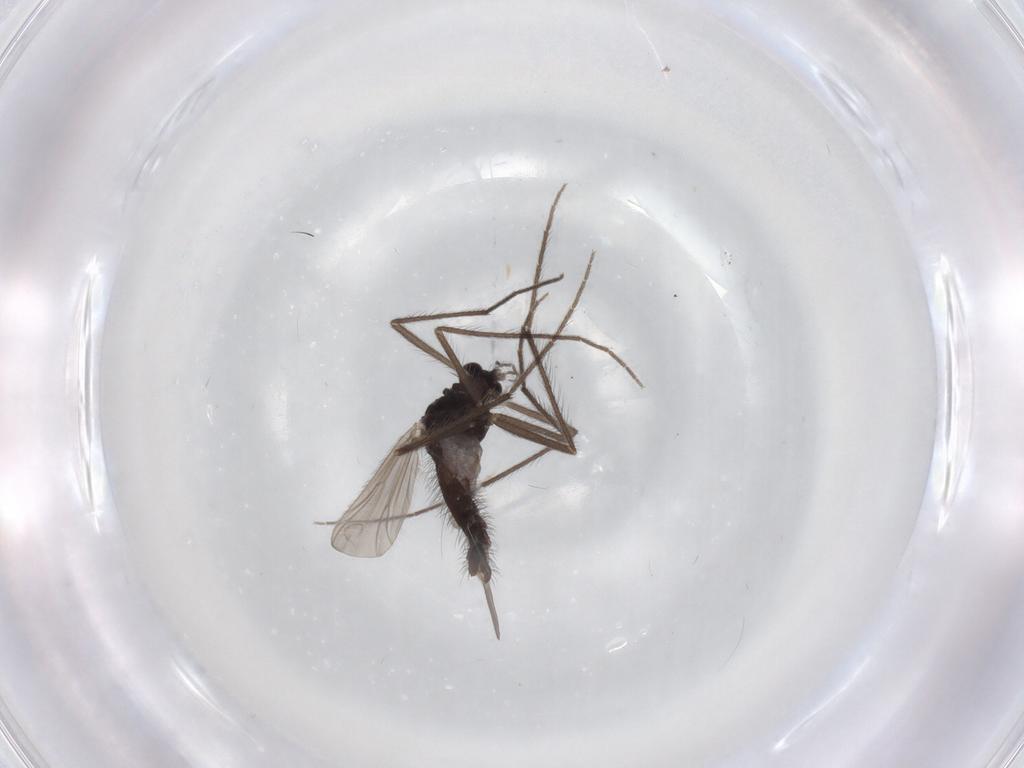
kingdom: Animalia
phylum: Arthropoda
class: Insecta
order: Diptera
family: Chironomidae
